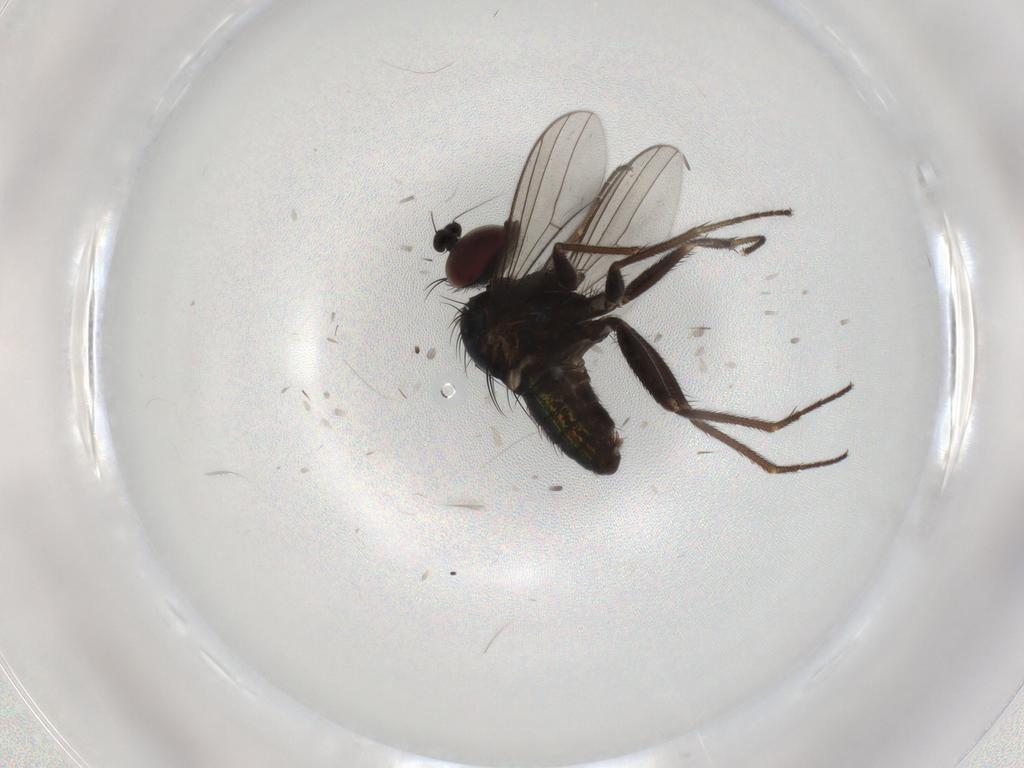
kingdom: Animalia
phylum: Arthropoda
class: Insecta
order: Diptera
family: Dolichopodidae
